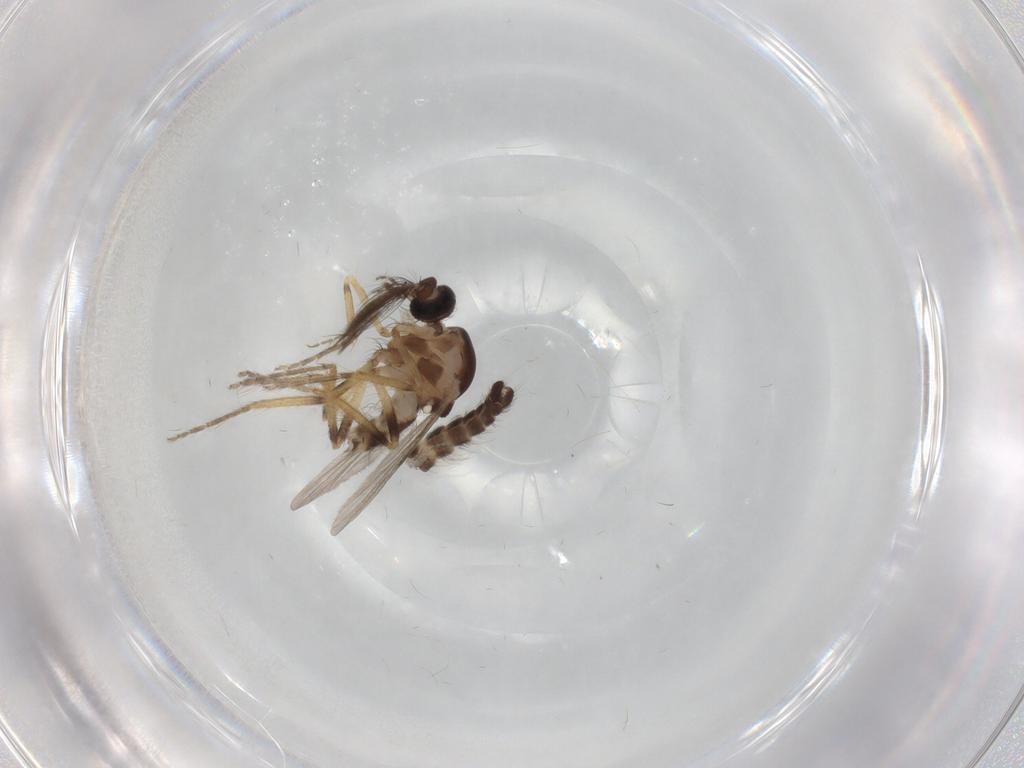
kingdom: Animalia
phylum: Arthropoda
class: Insecta
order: Diptera
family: Ceratopogonidae
